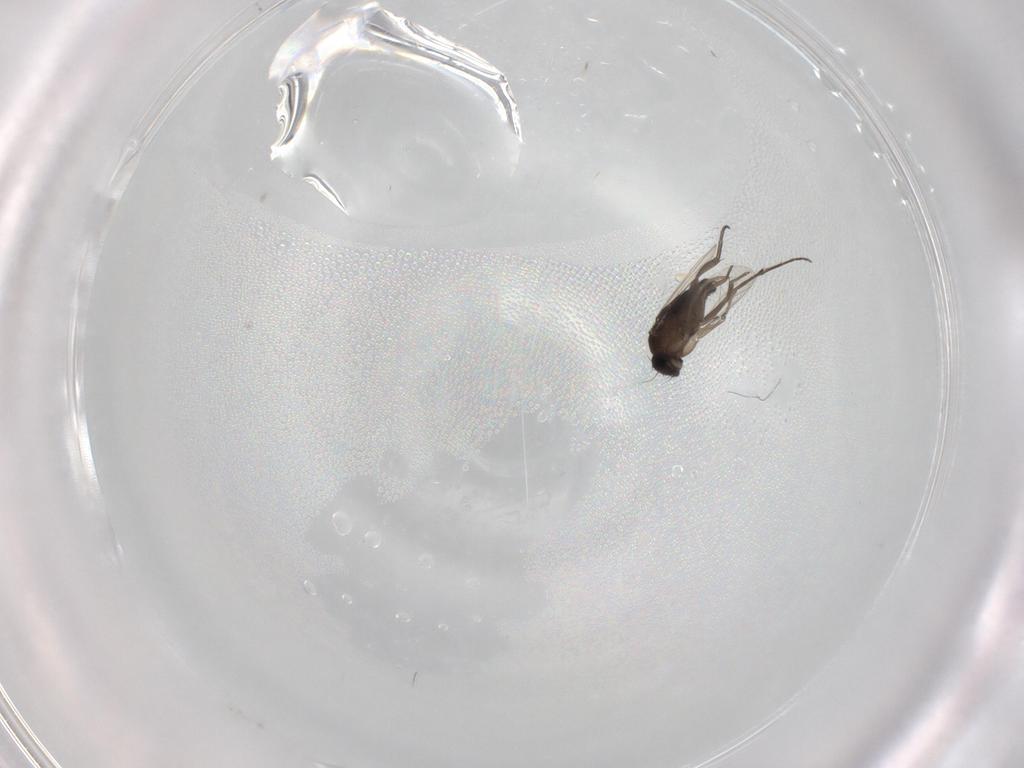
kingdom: Animalia
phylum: Arthropoda
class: Insecta
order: Diptera
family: Phoridae
